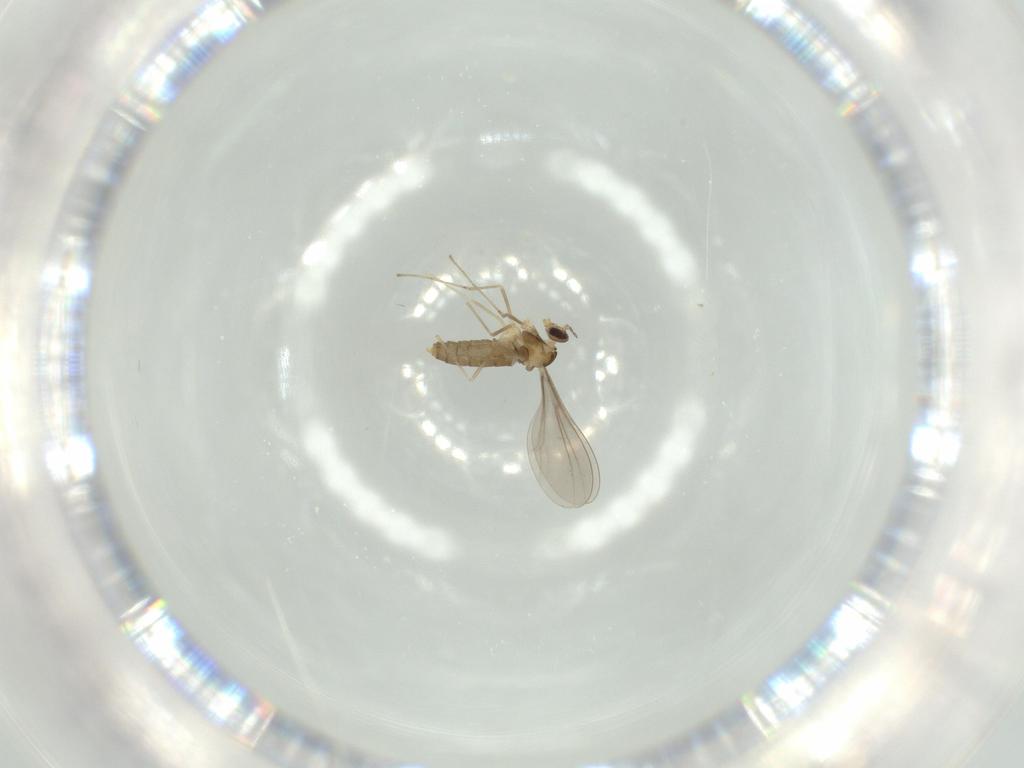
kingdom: Animalia
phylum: Arthropoda
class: Insecta
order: Diptera
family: Cecidomyiidae
